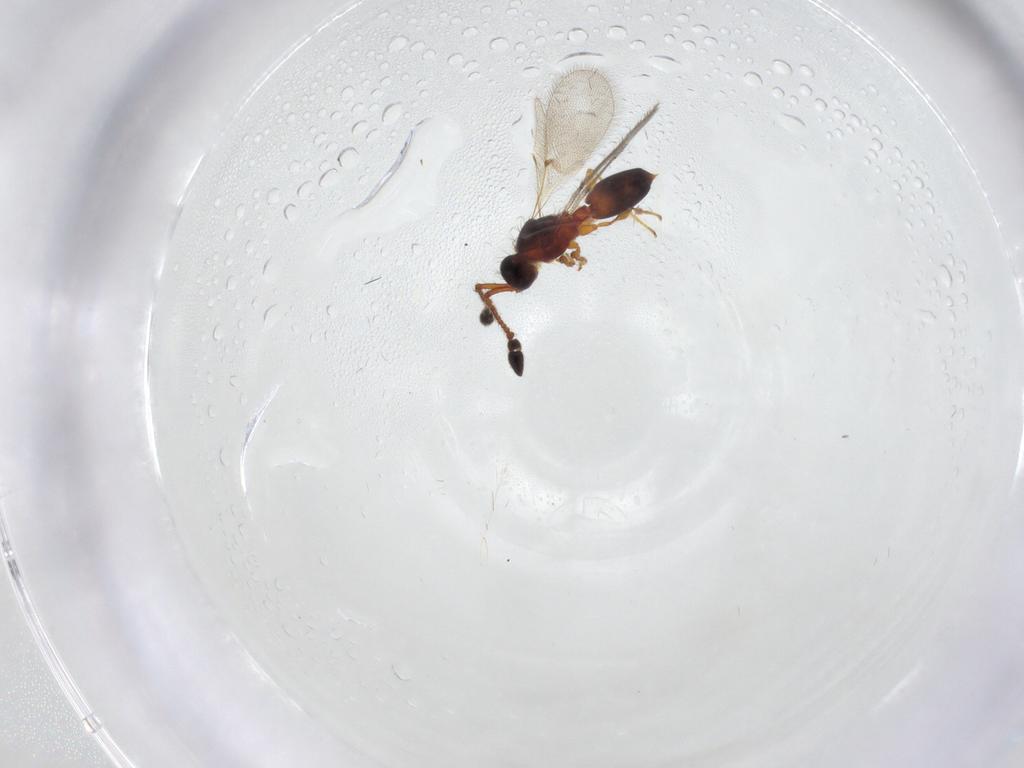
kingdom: Animalia
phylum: Arthropoda
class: Insecta
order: Hymenoptera
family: Diapriidae
